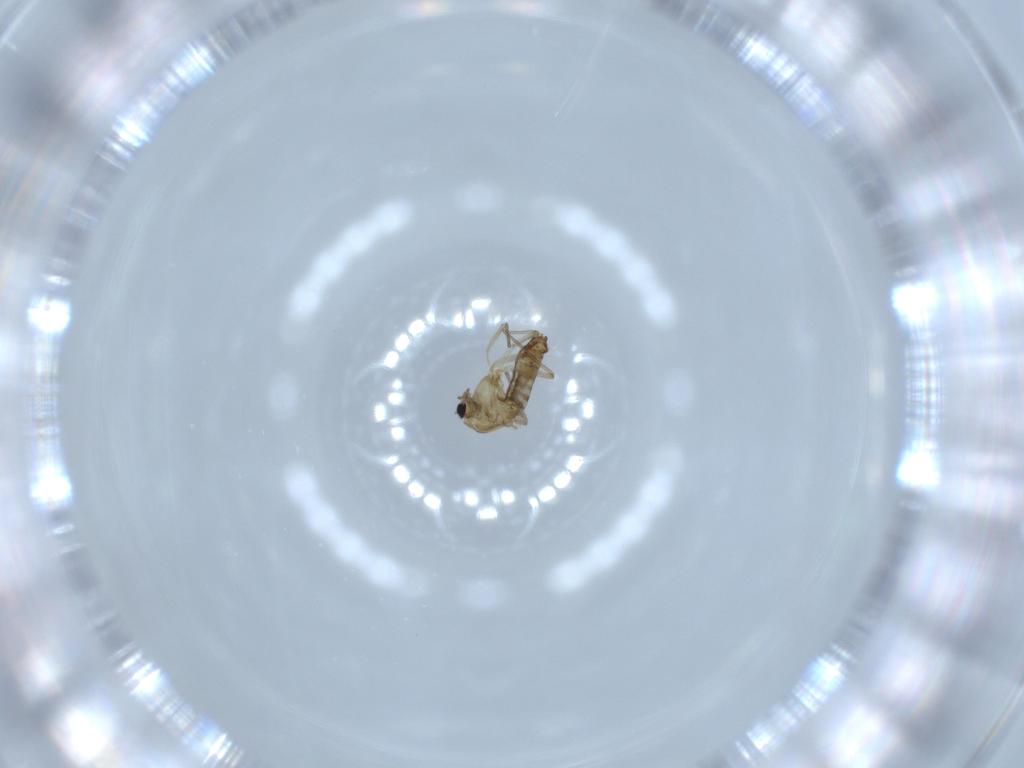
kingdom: Animalia
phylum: Arthropoda
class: Insecta
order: Diptera
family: Chironomidae
